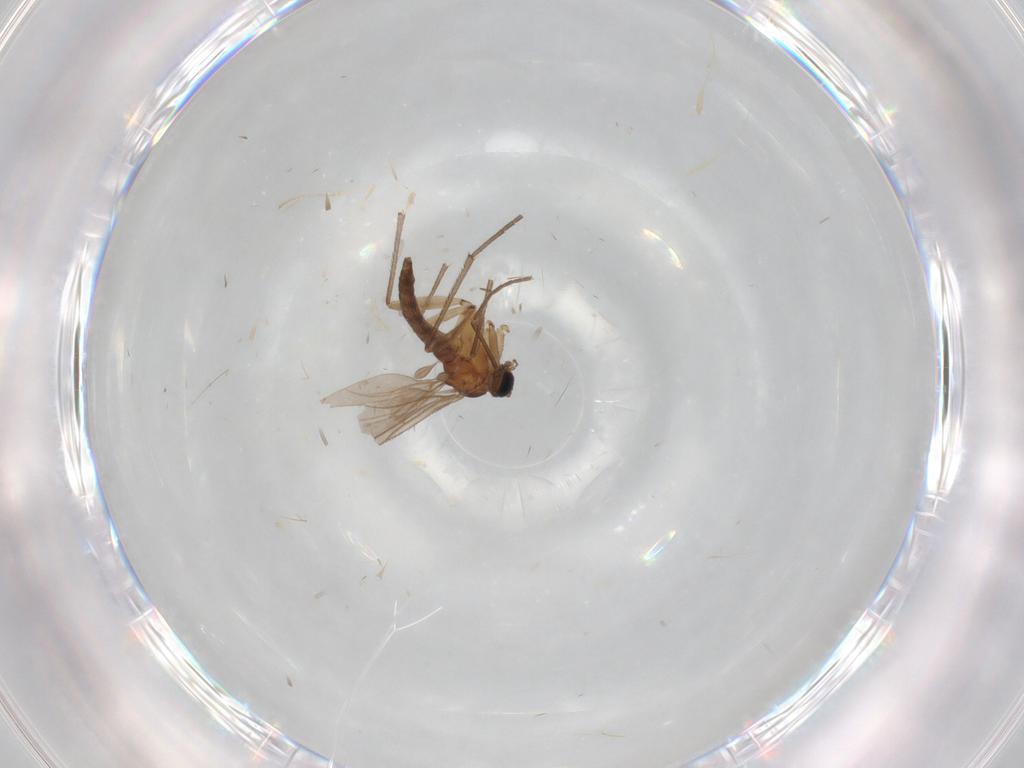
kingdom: Animalia
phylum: Arthropoda
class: Insecta
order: Diptera
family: Sciaridae
